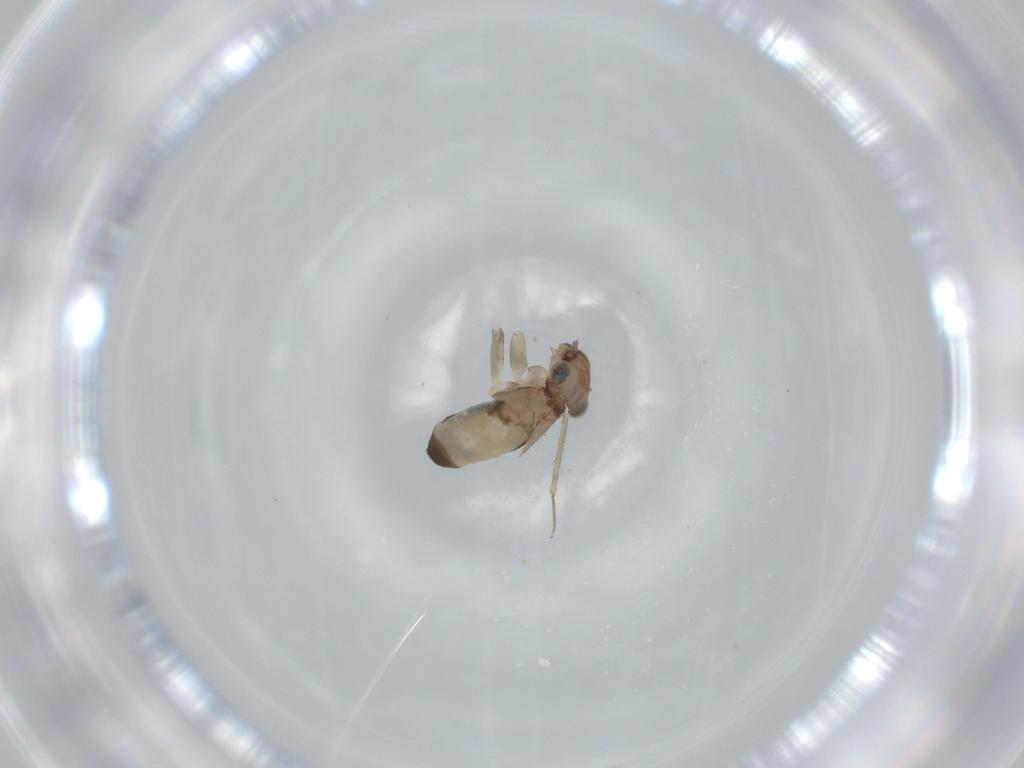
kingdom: Animalia
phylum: Arthropoda
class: Insecta
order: Psocodea
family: Lepidopsocidae
